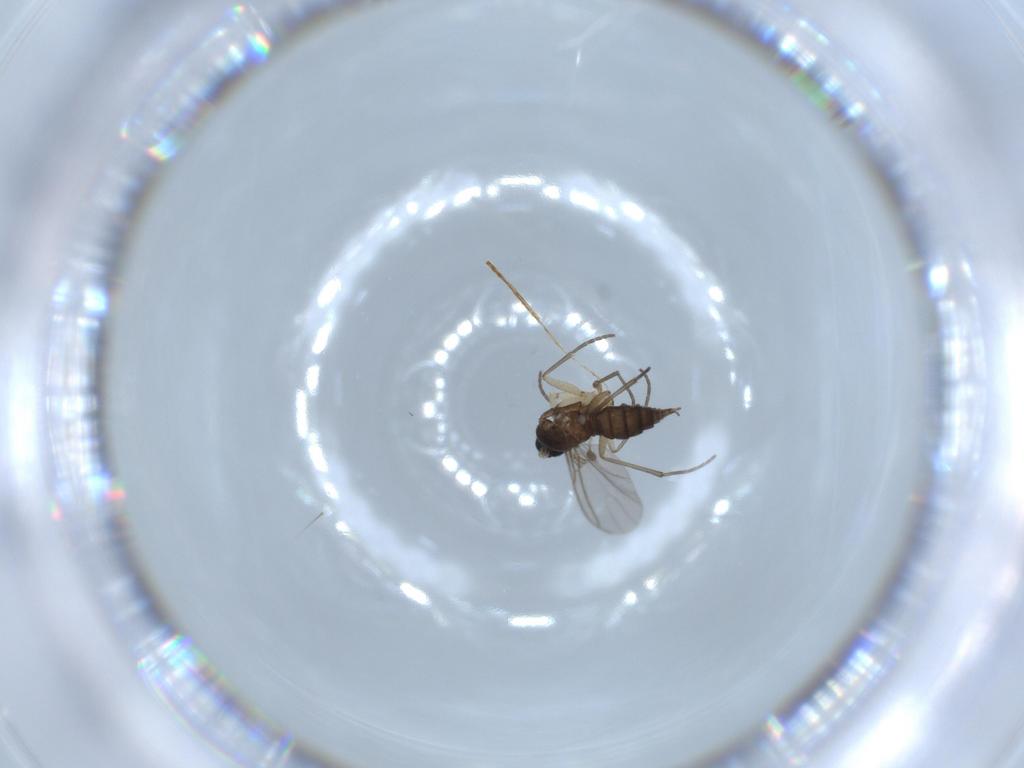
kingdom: Animalia
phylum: Arthropoda
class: Insecta
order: Diptera
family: Sciaridae
